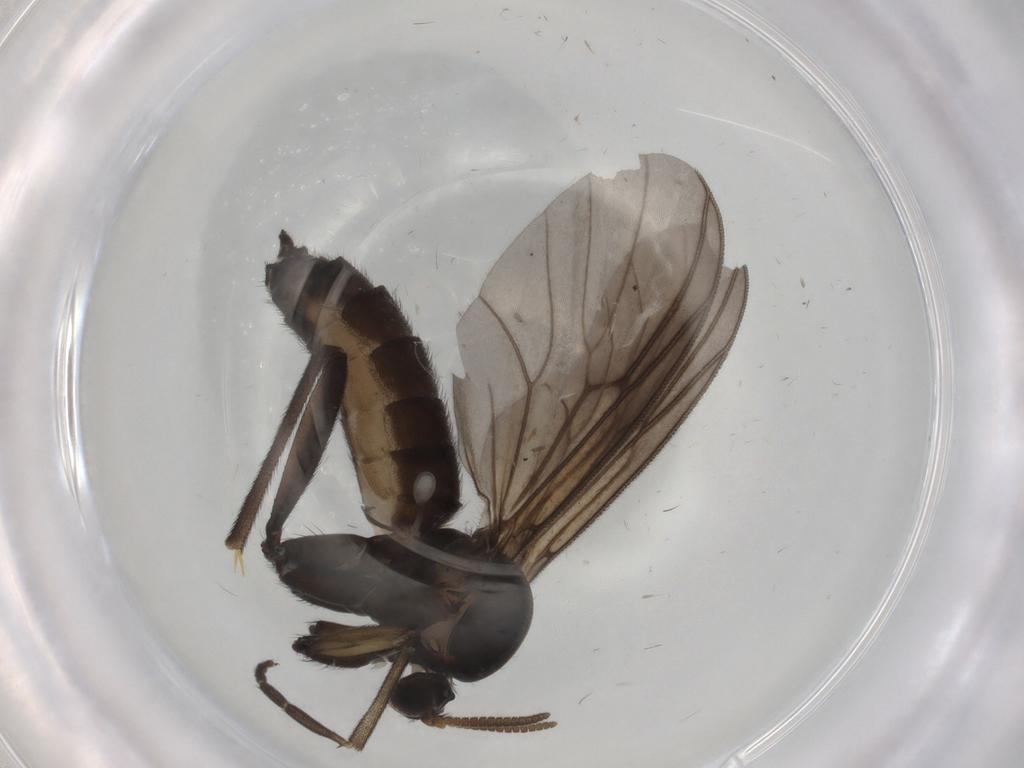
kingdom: Animalia
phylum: Arthropoda
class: Insecta
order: Diptera
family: Mycetophilidae
